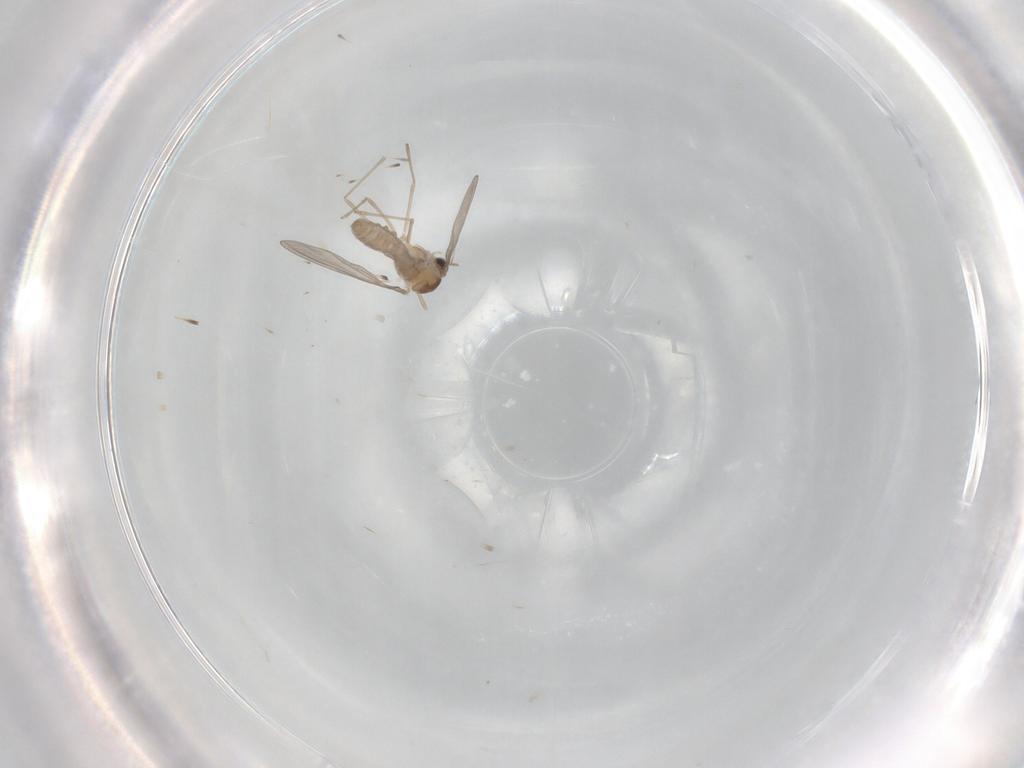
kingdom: Animalia
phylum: Arthropoda
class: Insecta
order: Diptera
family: Cecidomyiidae
